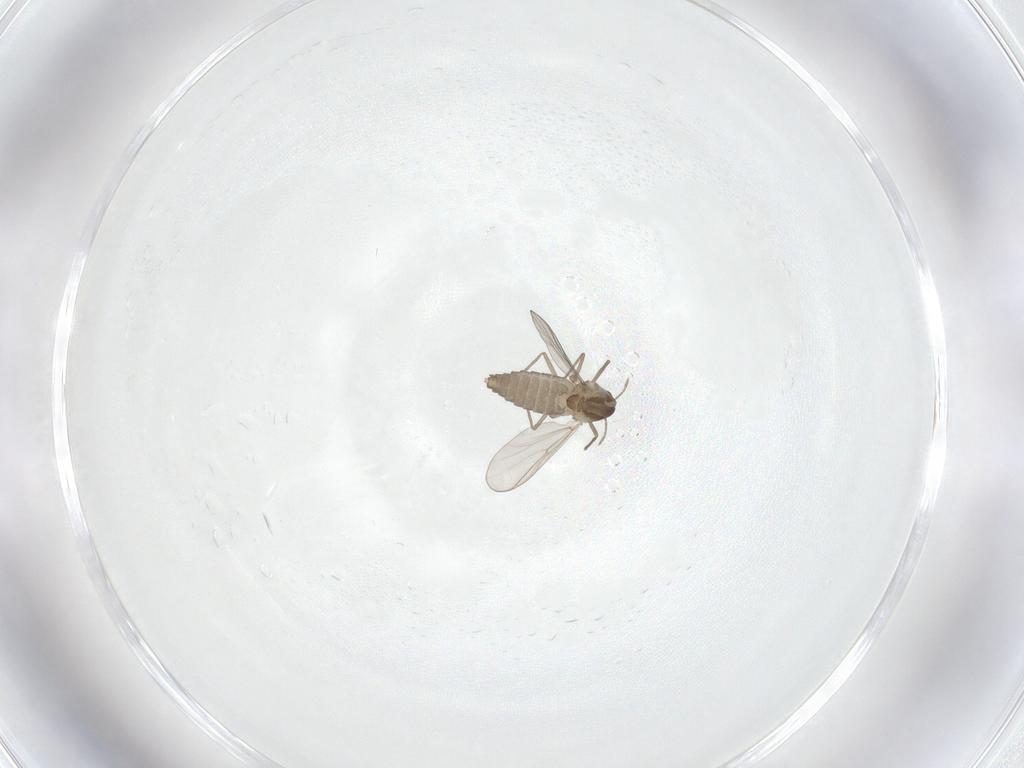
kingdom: Animalia
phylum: Arthropoda
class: Insecta
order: Diptera
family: Chironomidae
